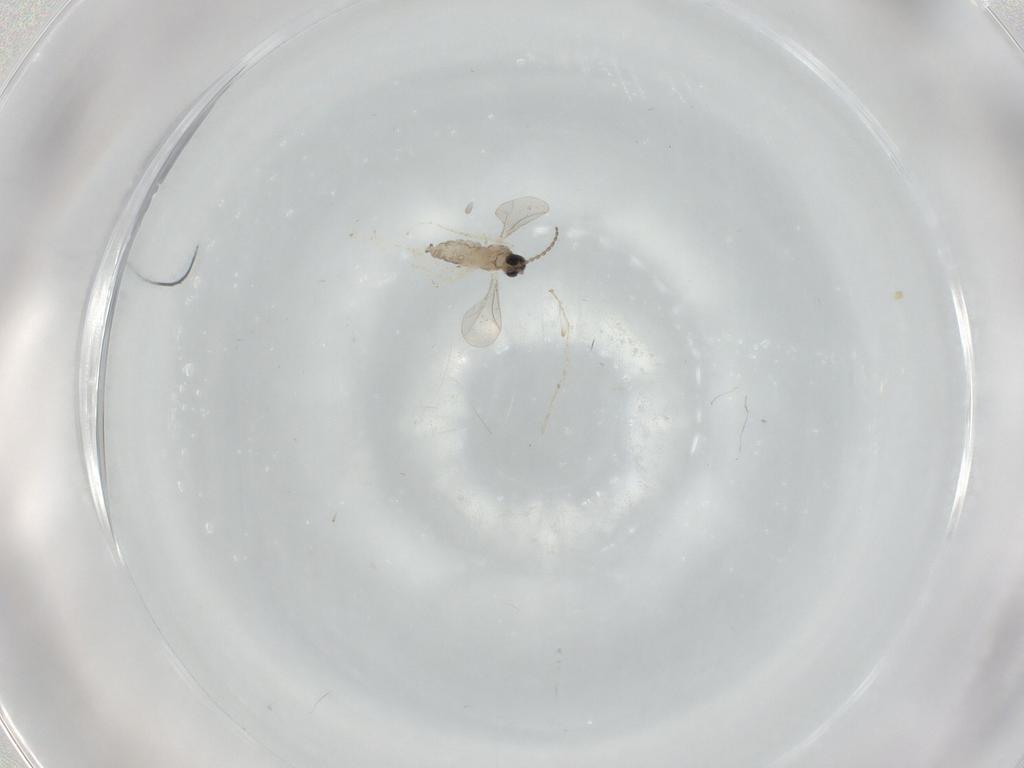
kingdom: Animalia
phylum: Arthropoda
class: Insecta
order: Diptera
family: Cecidomyiidae
